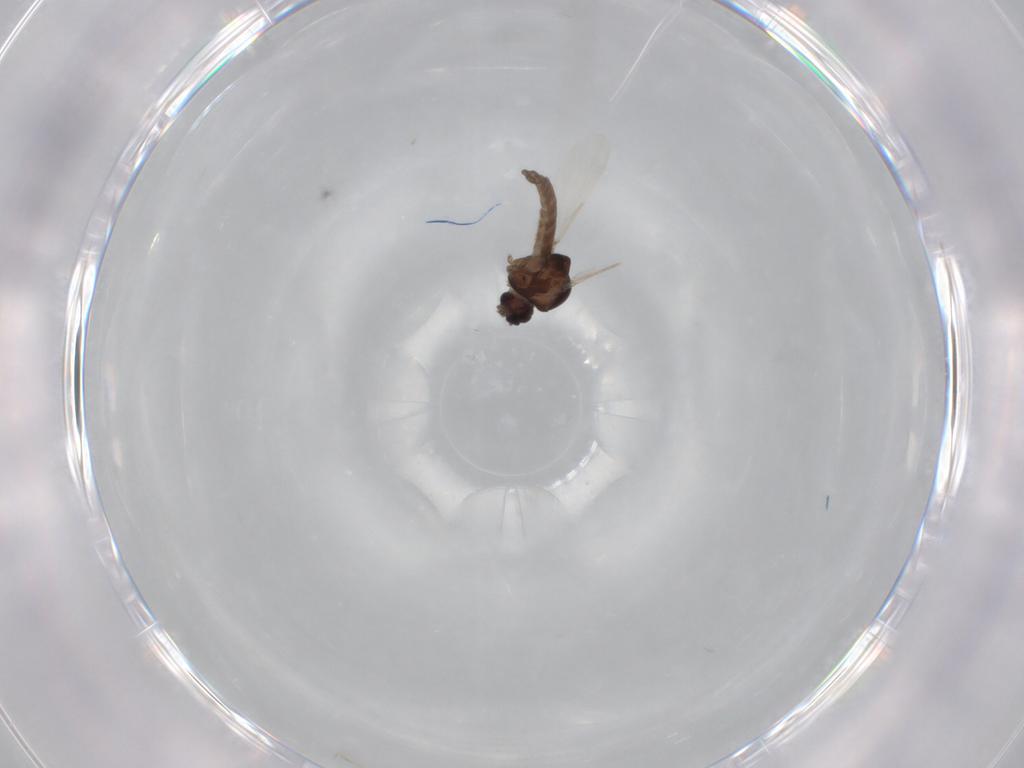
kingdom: Animalia
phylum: Arthropoda
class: Insecta
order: Diptera
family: Ceratopogonidae
